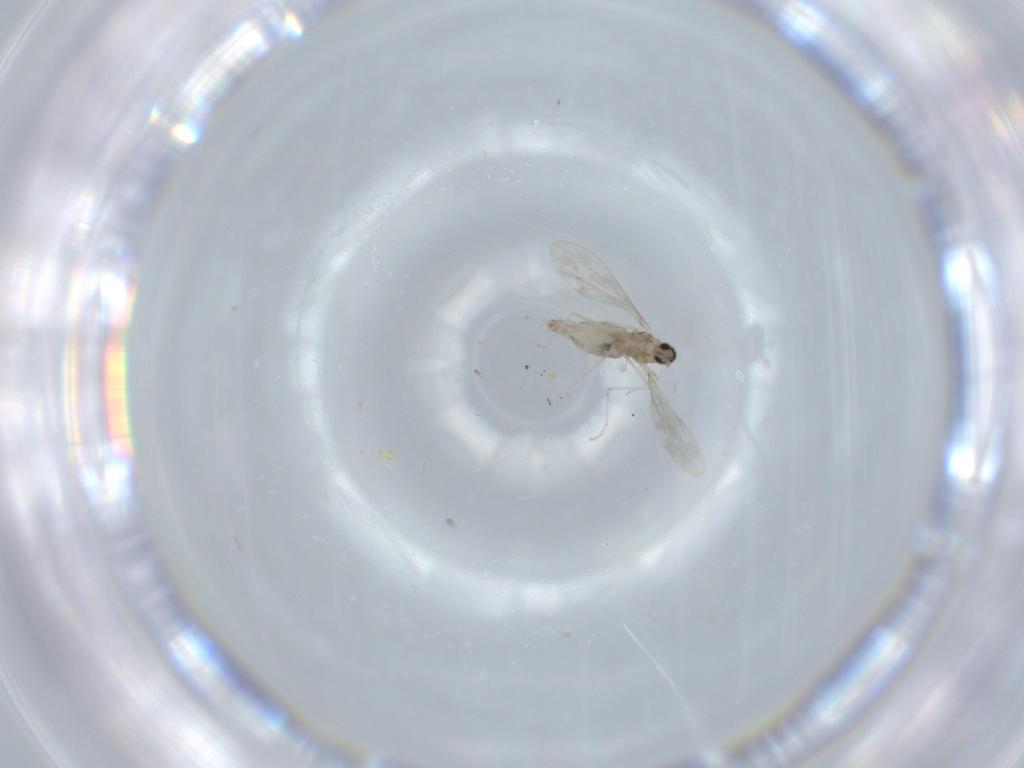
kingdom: Animalia
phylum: Arthropoda
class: Insecta
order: Diptera
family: Cecidomyiidae
